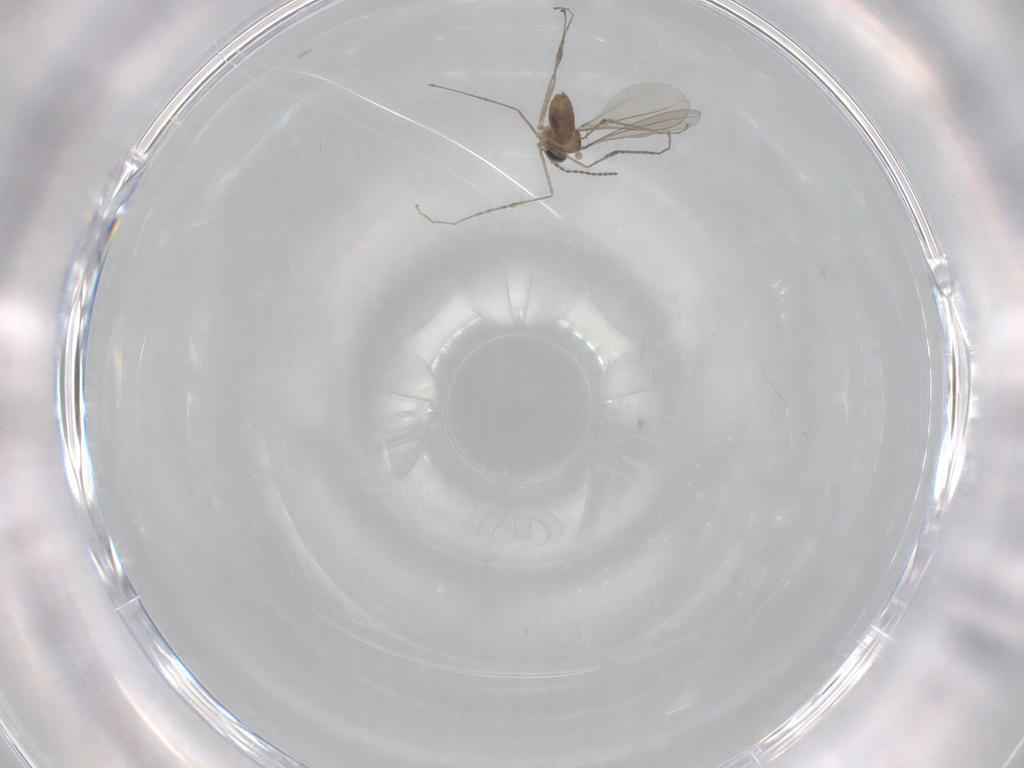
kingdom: Animalia
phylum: Arthropoda
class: Insecta
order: Diptera
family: Cecidomyiidae
